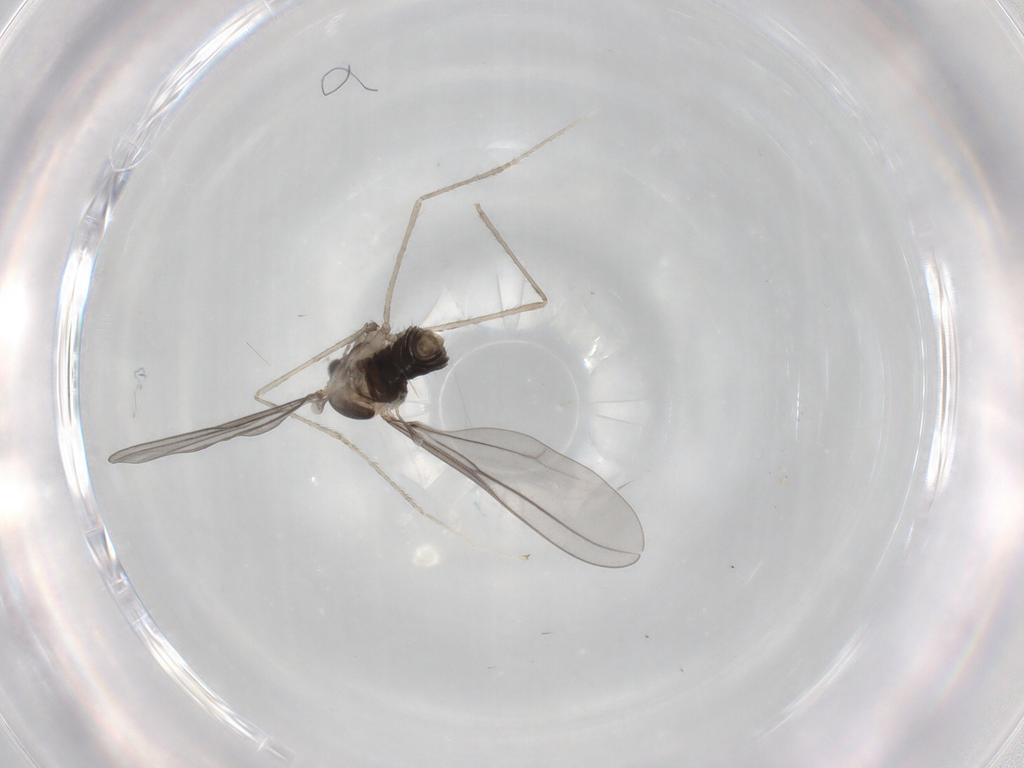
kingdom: Animalia
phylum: Arthropoda
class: Insecta
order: Diptera
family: Cecidomyiidae
